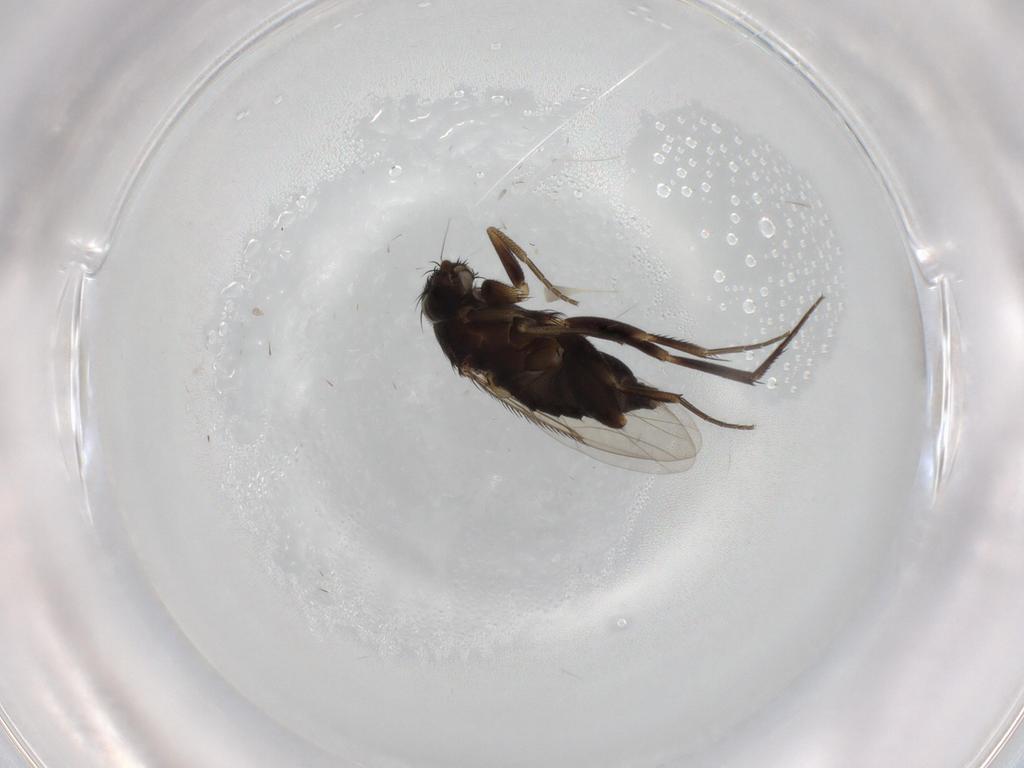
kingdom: Animalia
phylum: Arthropoda
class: Insecta
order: Diptera
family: Phoridae
